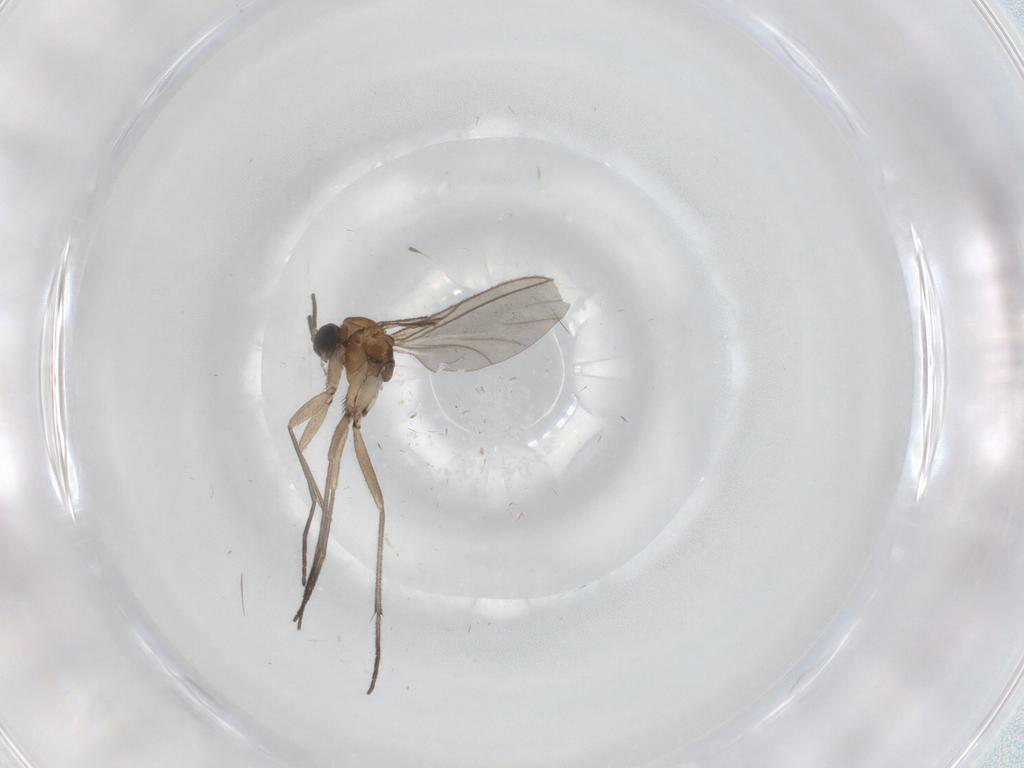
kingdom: Animalia
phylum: Arthropoda
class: Insecta
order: Diptera
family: Sciaridae
